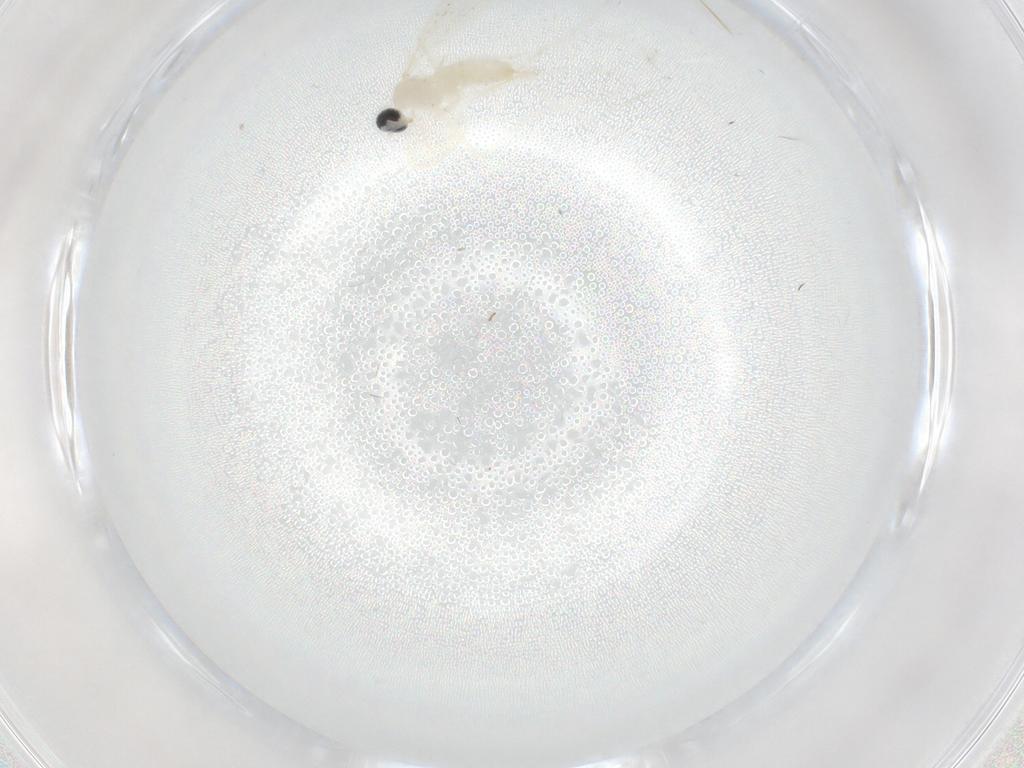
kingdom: Animalia
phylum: Arthropoda
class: Insecta
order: Diptera
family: Cecidomyiidae
